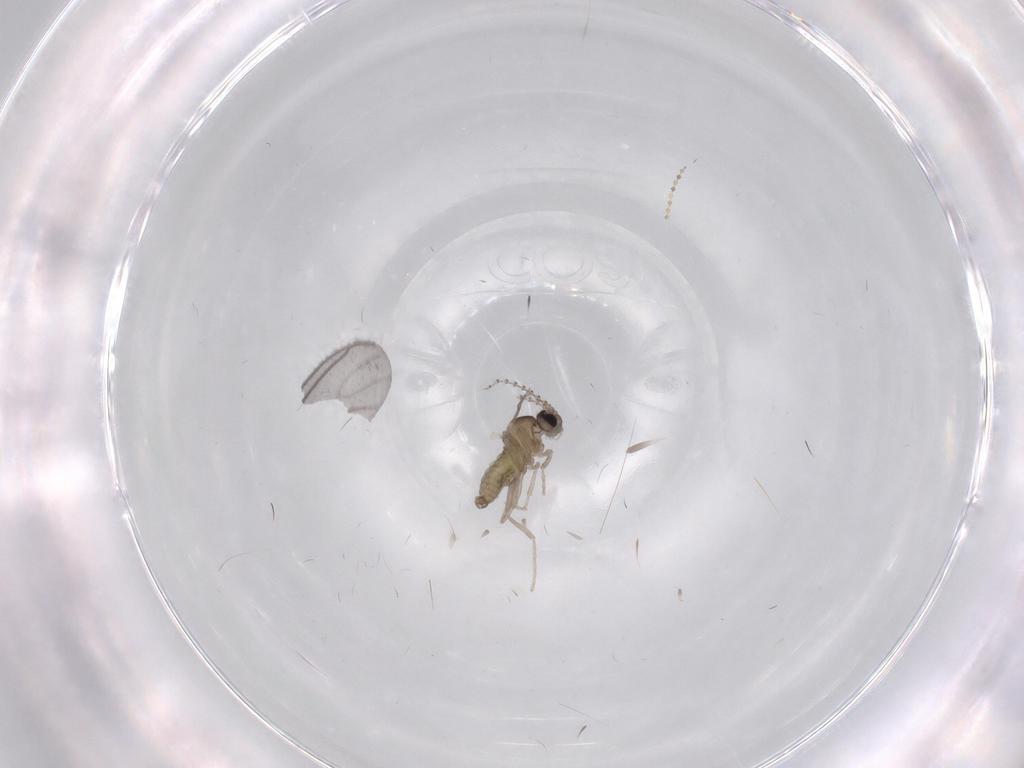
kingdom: Animalia
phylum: Arthropoda
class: Insecta
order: Diptera
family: Cecidomyiidae
